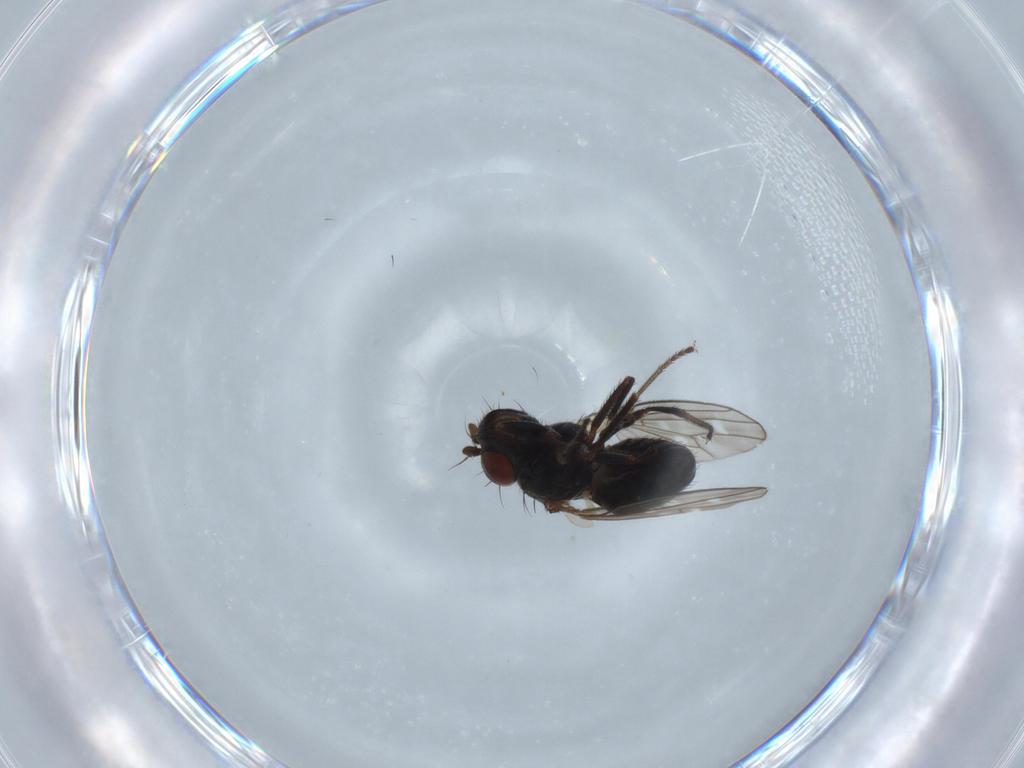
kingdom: Animalia
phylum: Arthropoda
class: Insecta
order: Diptera
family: Ephydridae
